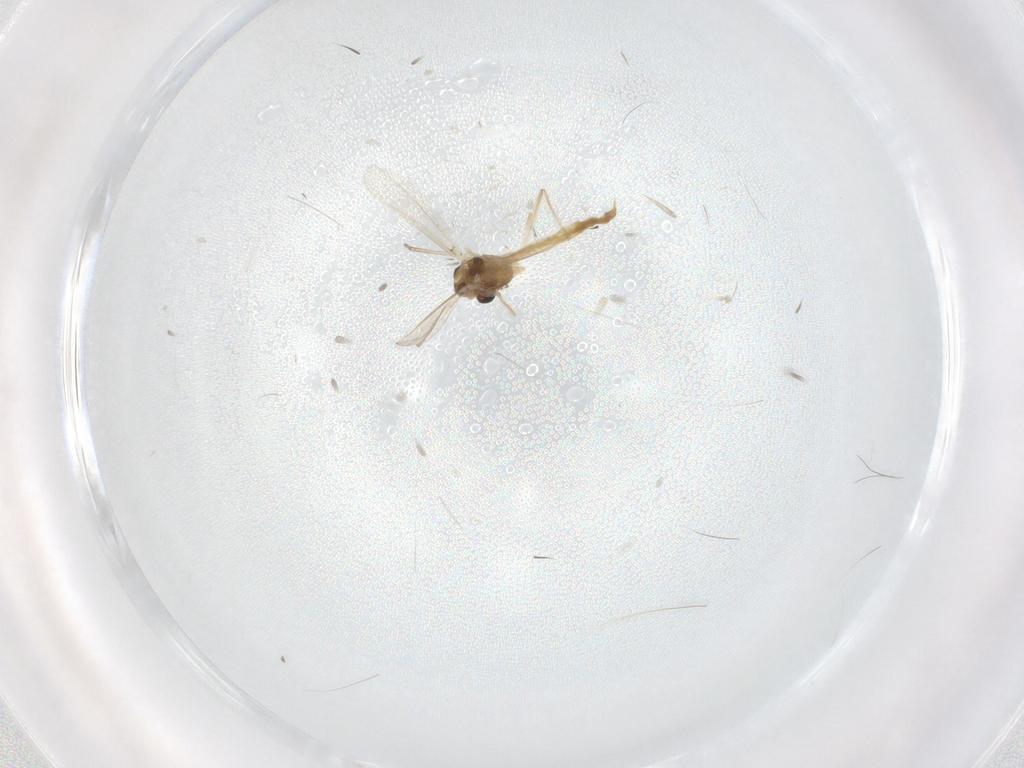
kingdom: Animalia
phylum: Arthropoda
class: Insecta
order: Diptera
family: Chironomidae
